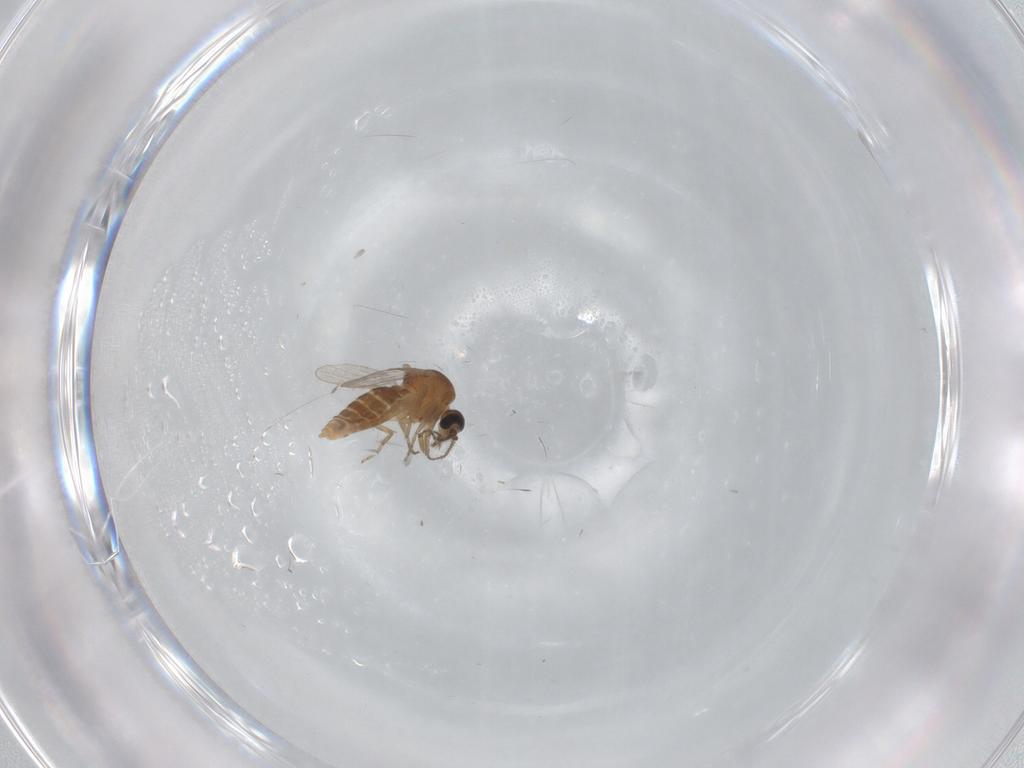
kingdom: Animalia
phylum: Arthropoda
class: Insecta
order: Diptera
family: Ceratopogonidae
